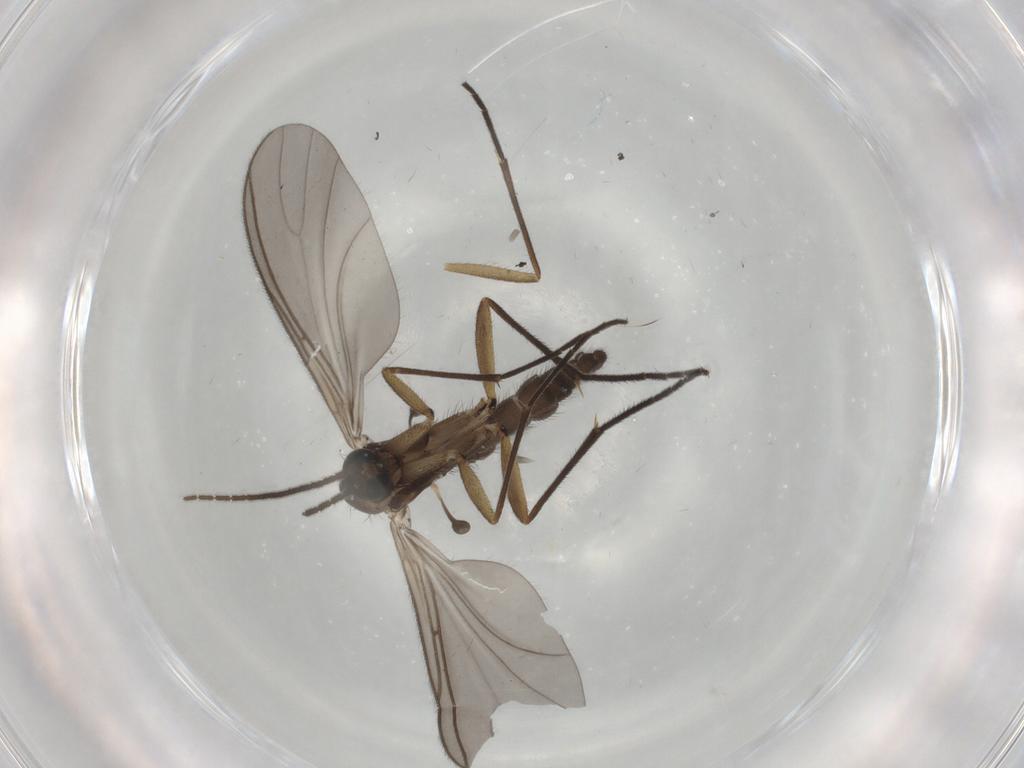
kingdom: Animalia
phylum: Arthropoda
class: Insecta
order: Diptera
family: Sciaridae
